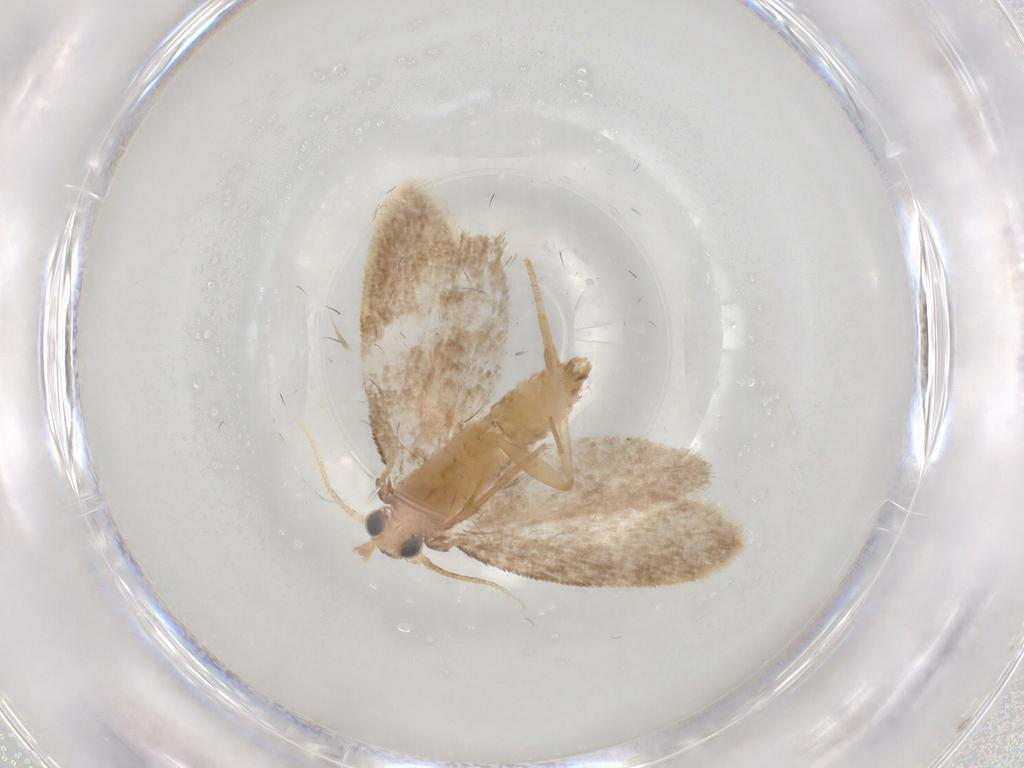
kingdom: Animalia
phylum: Arthropoda
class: Insecta
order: Lepidoptera
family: Psychidae
